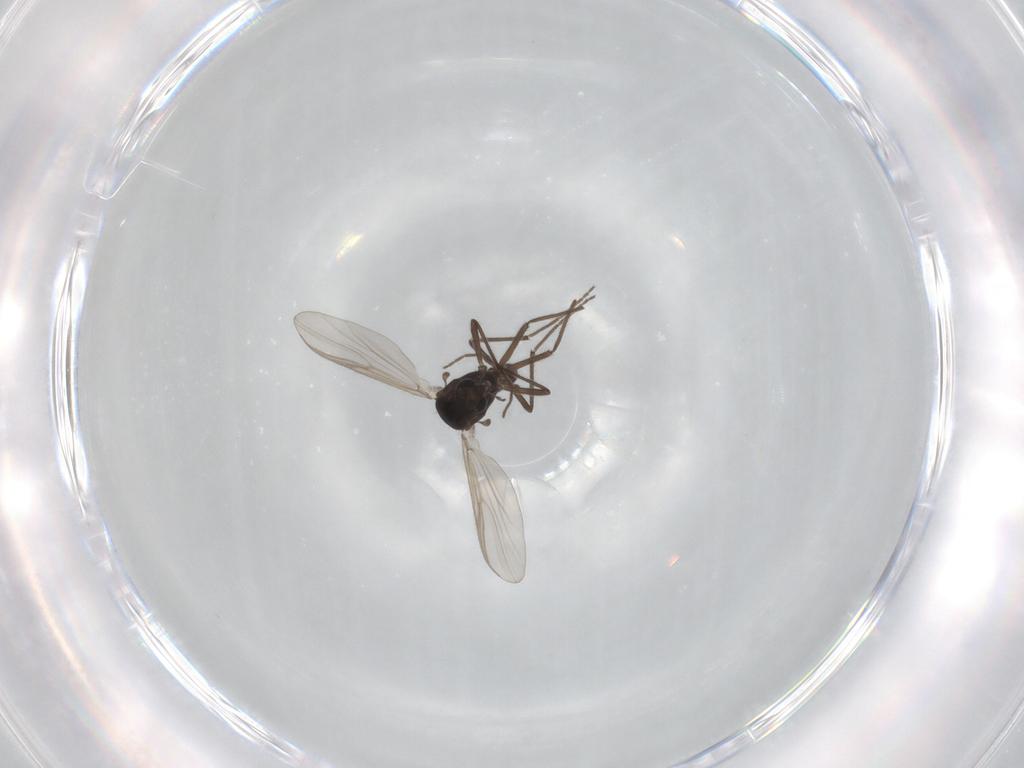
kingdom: Animalia
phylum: Arthropoda
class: Insecta
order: Diptera
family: Chironomidae
